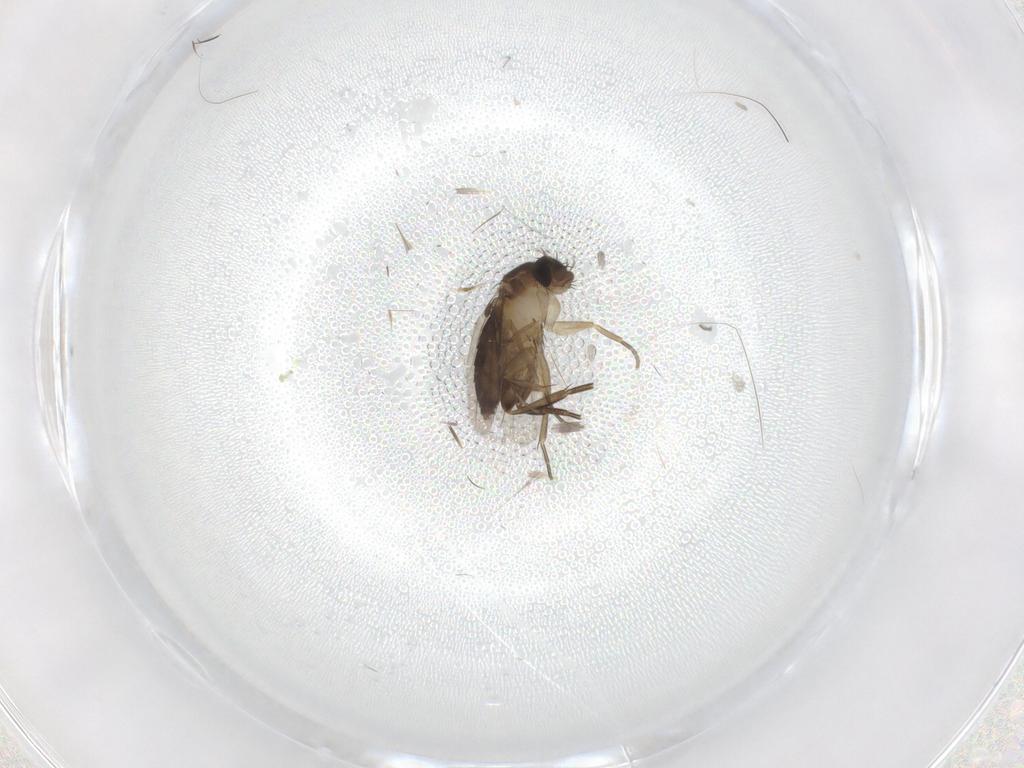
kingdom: Animalia
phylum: Arthropoda
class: Insecta
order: Diptera
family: Phoridae
